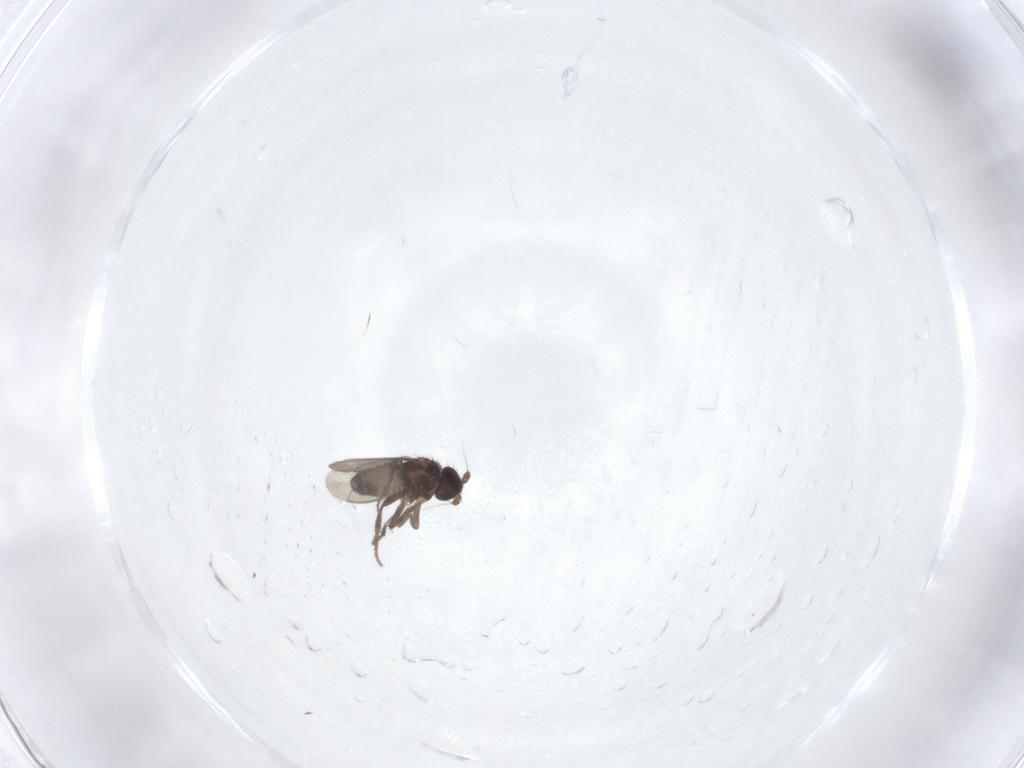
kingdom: Animalia
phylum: Arthropoda
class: Insecta
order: Diptera
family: Sphaeroceridae
